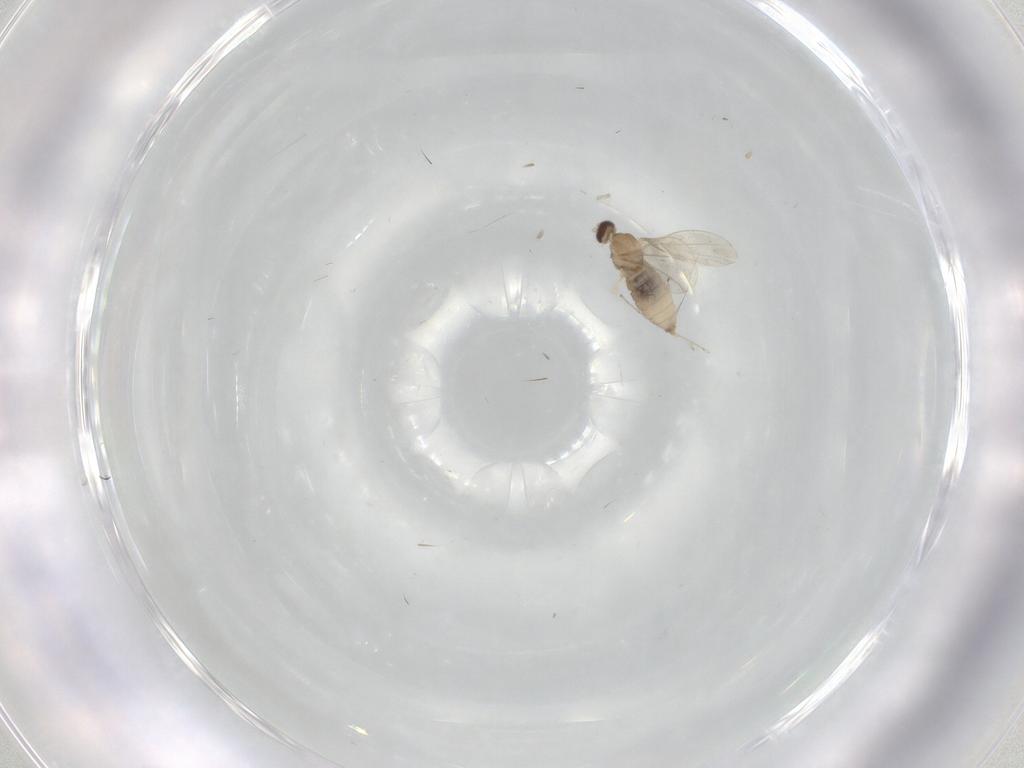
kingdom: Animalia
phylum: Arthropoda
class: Insecta
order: Diptera
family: Cecidomyiidae
